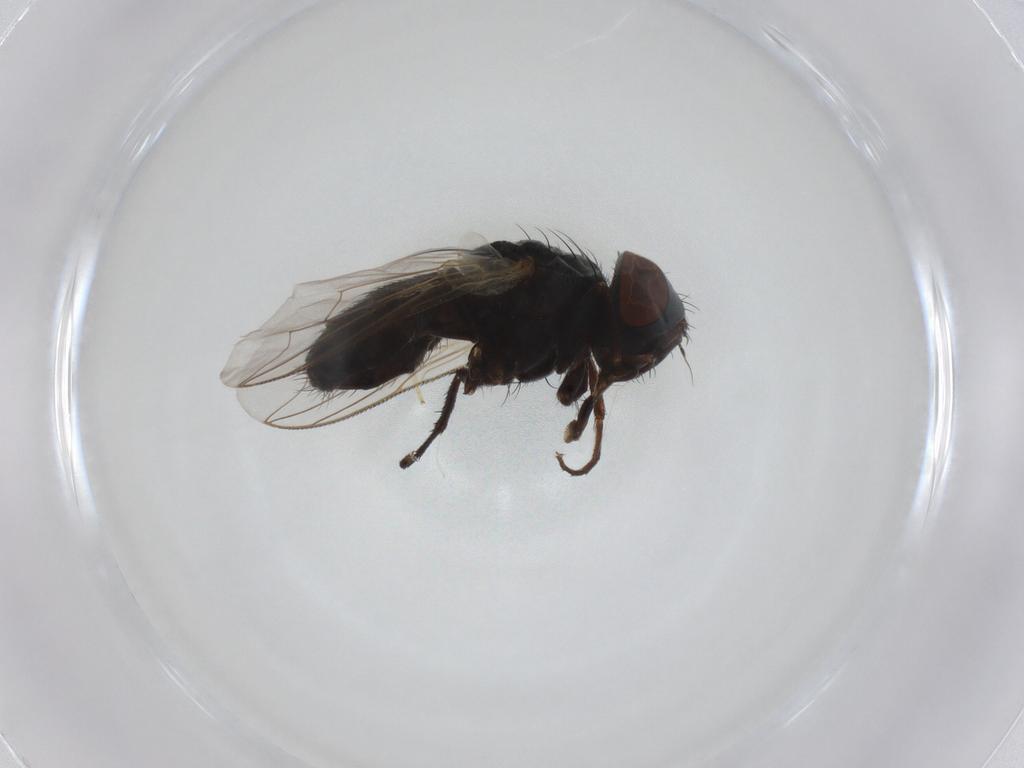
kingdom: Animalia
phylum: Arthropoda
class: Insecta
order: Diptera
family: Sarcophagidae
